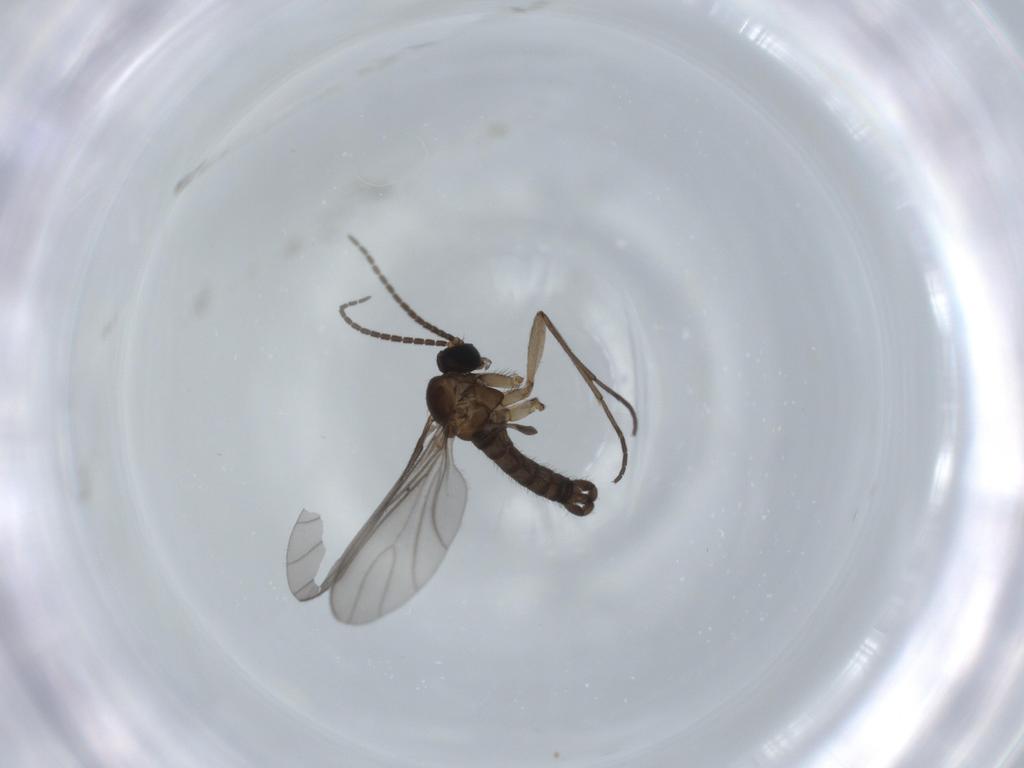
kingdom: Animalia
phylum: Arthropoda
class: Insecta
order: Diptera
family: Sciaridae
